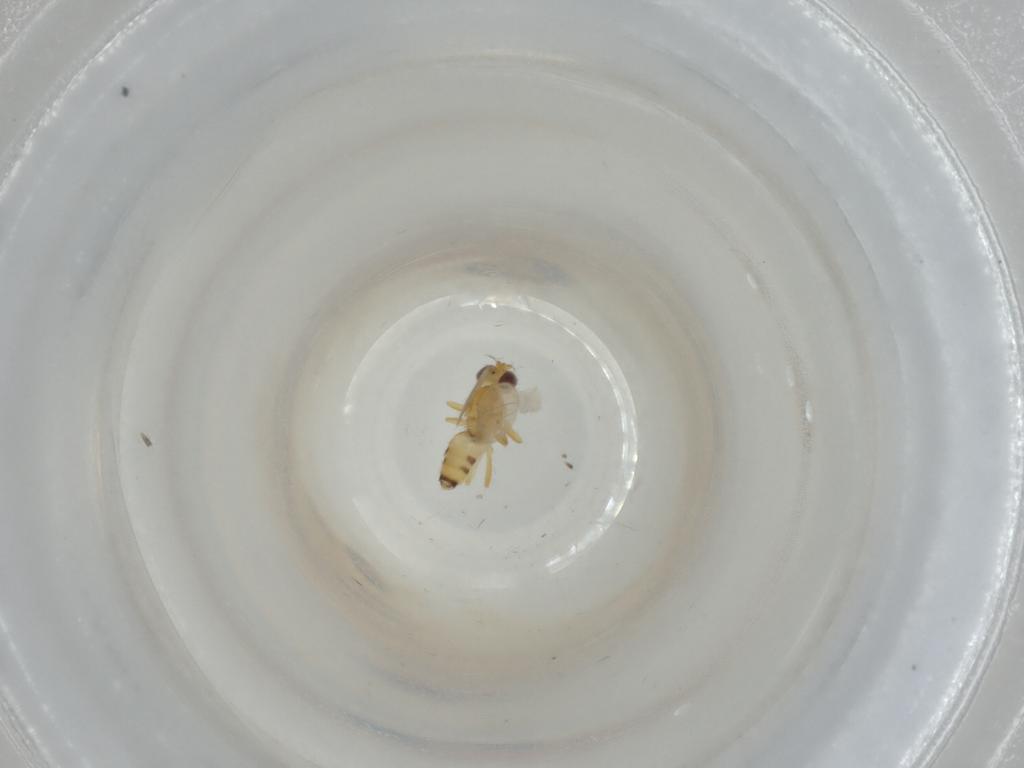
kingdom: Animalia
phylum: Arthropoda
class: Insecta
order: Diptera
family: Periscelididae
